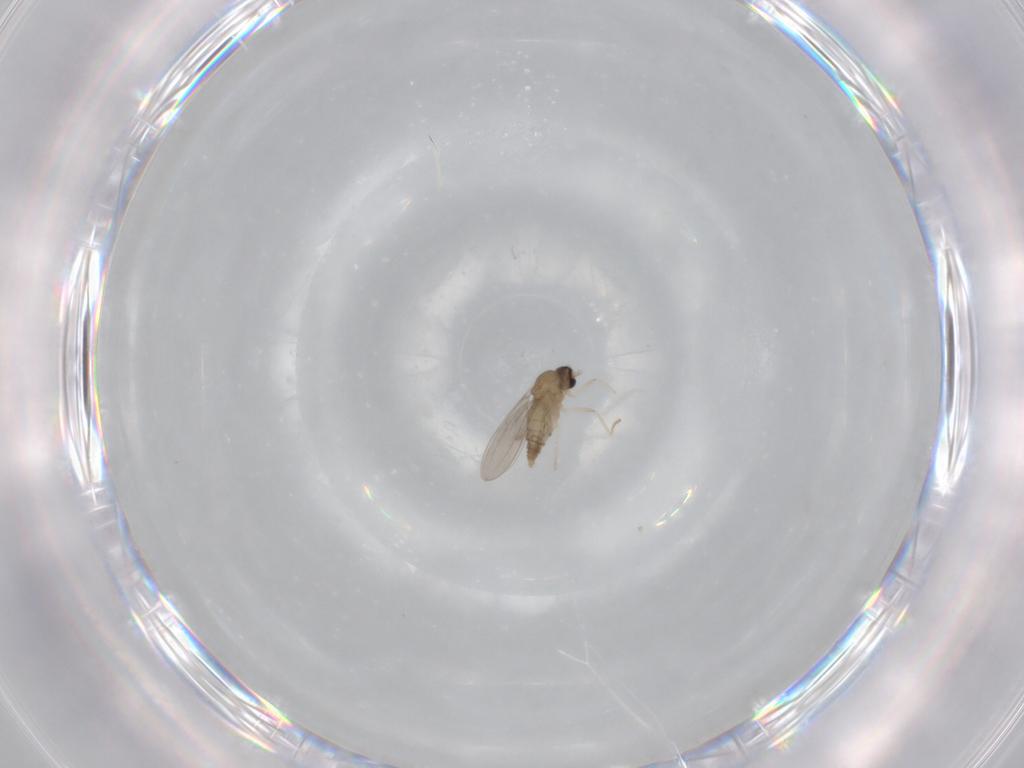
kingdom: Animalia
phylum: Arthropoda
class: Insecta
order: Diptera
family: Cecidomyiidae
